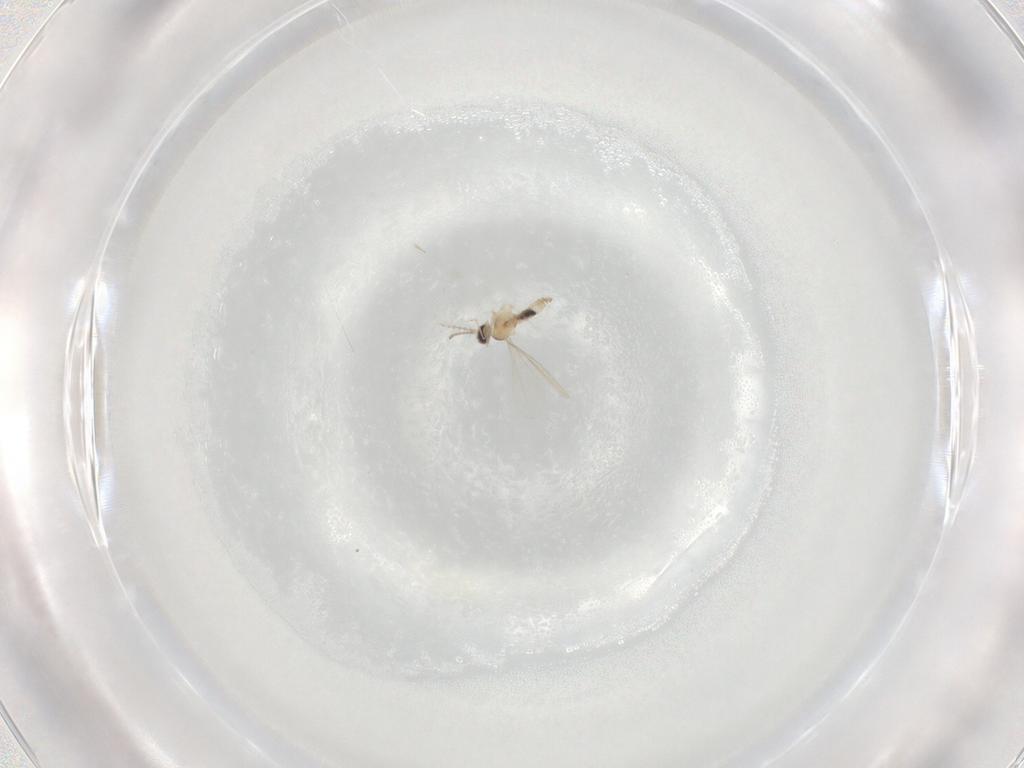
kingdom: Animalia
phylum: Arthropoda
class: Insecta
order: Diptera
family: Cecidomyiidae
